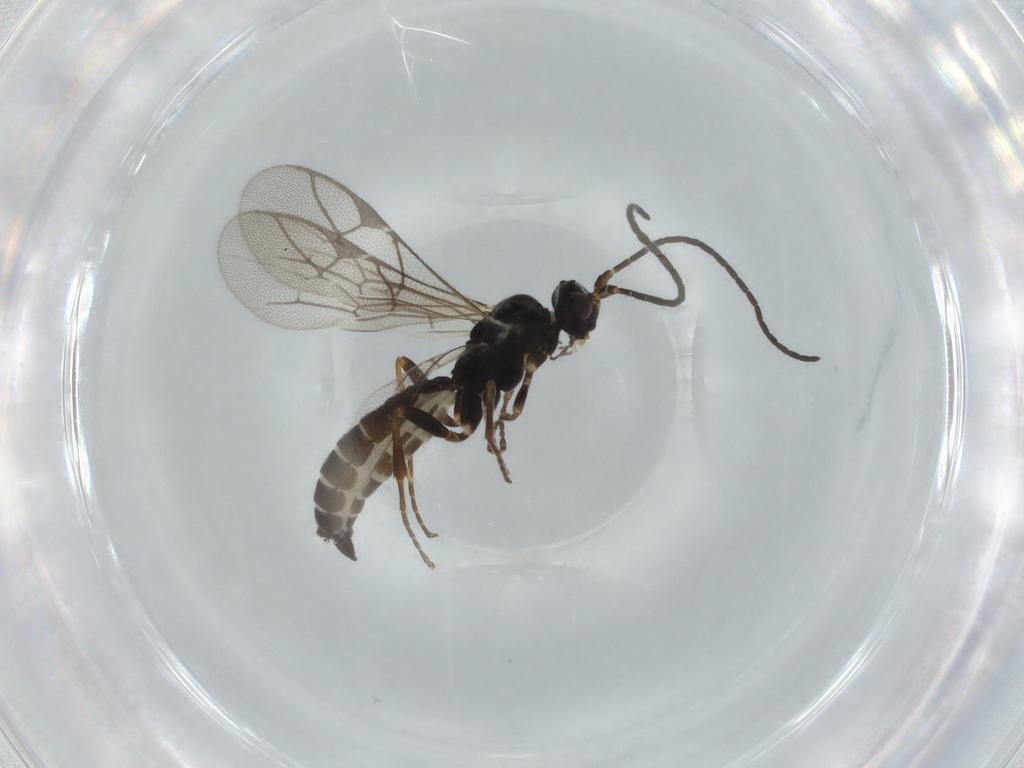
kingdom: Animalia
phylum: Arthropoda
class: Insecta
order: Hymenoptera
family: Ichneumonidae
